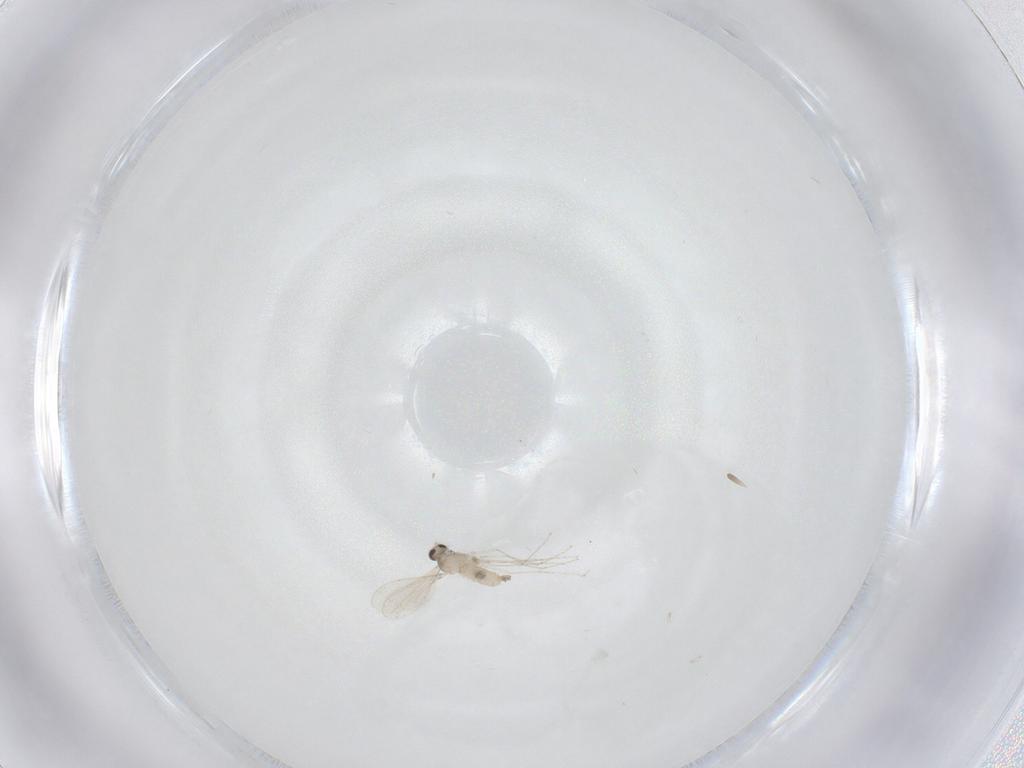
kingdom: Animalia
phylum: Arthropoda
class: Insecta
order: Diptera
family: Cecidomyiidae
